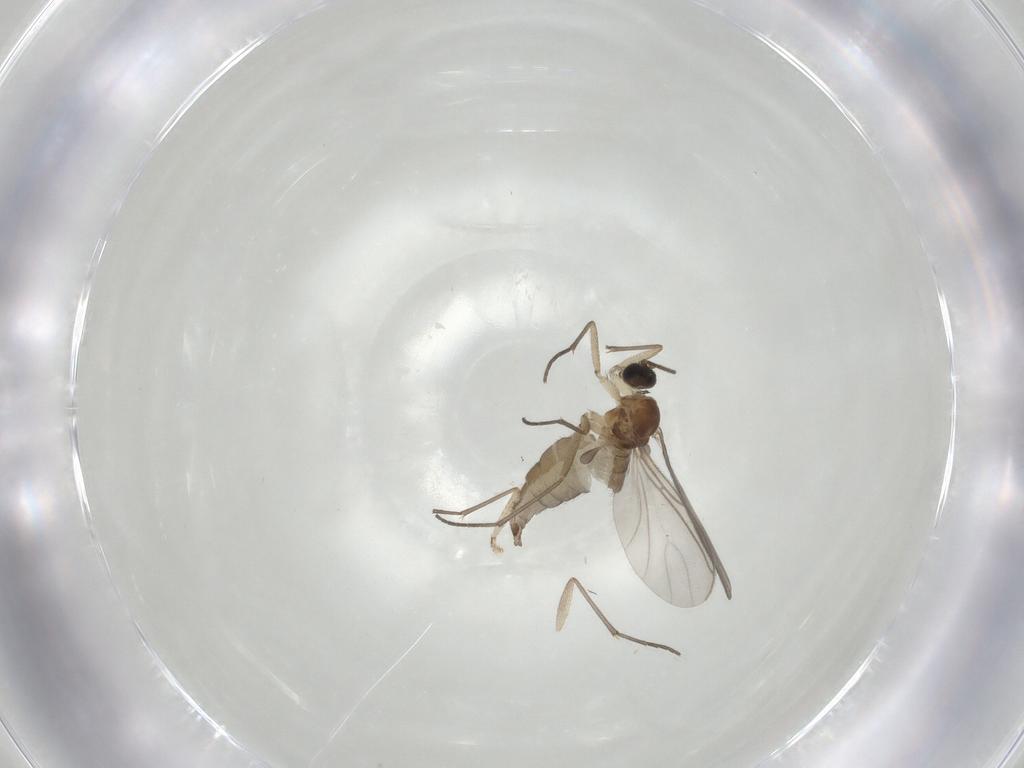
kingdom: Animalia
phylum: Arthropoda
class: Insecta
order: Diptera
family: Sciaridae
